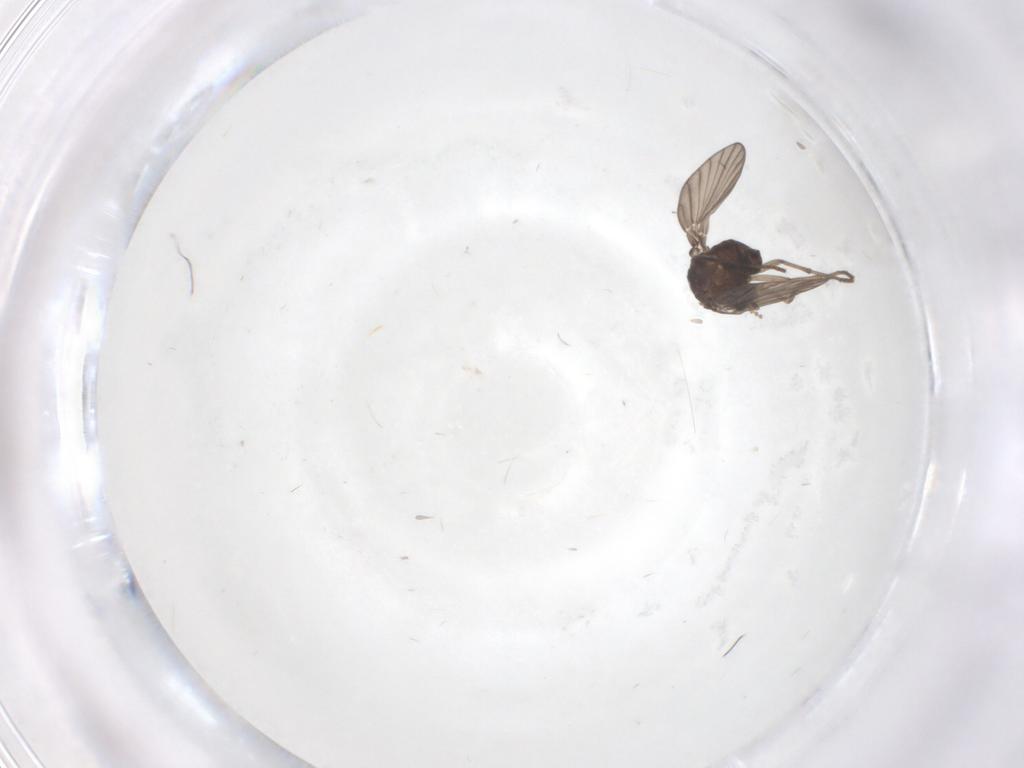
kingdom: Animalia
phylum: Arthropoda
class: Insecta
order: Diptera
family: Psychodidae
